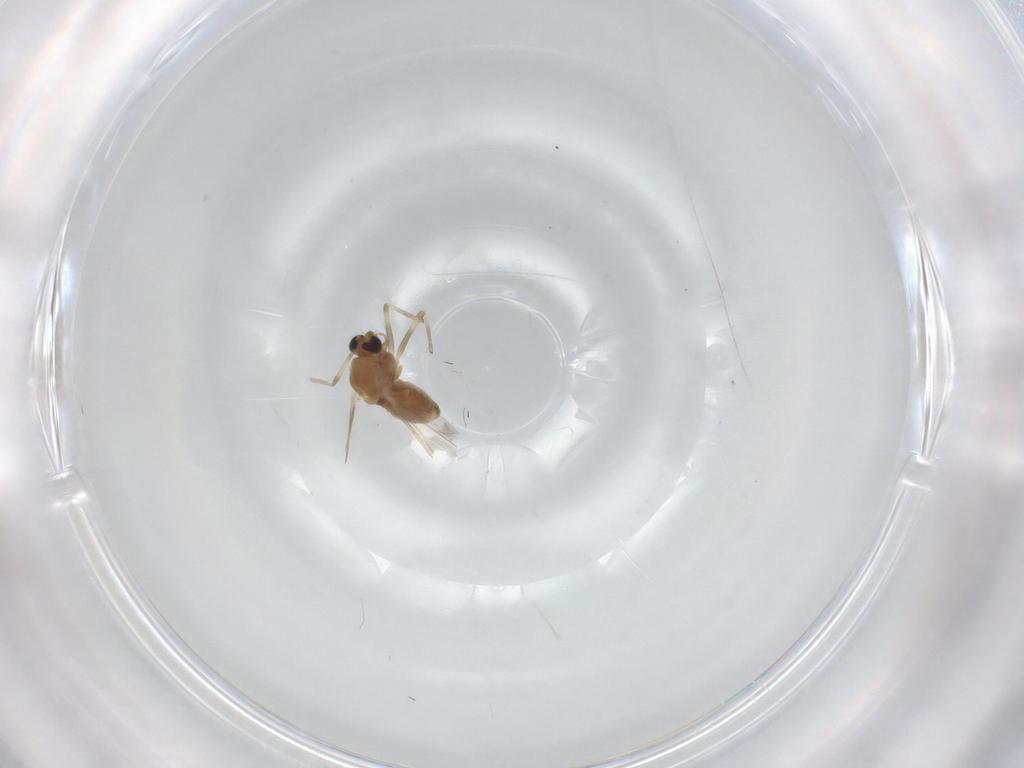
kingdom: Animalia
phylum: Arthropoda
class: Insecta
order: Diptera
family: Chironomidae
